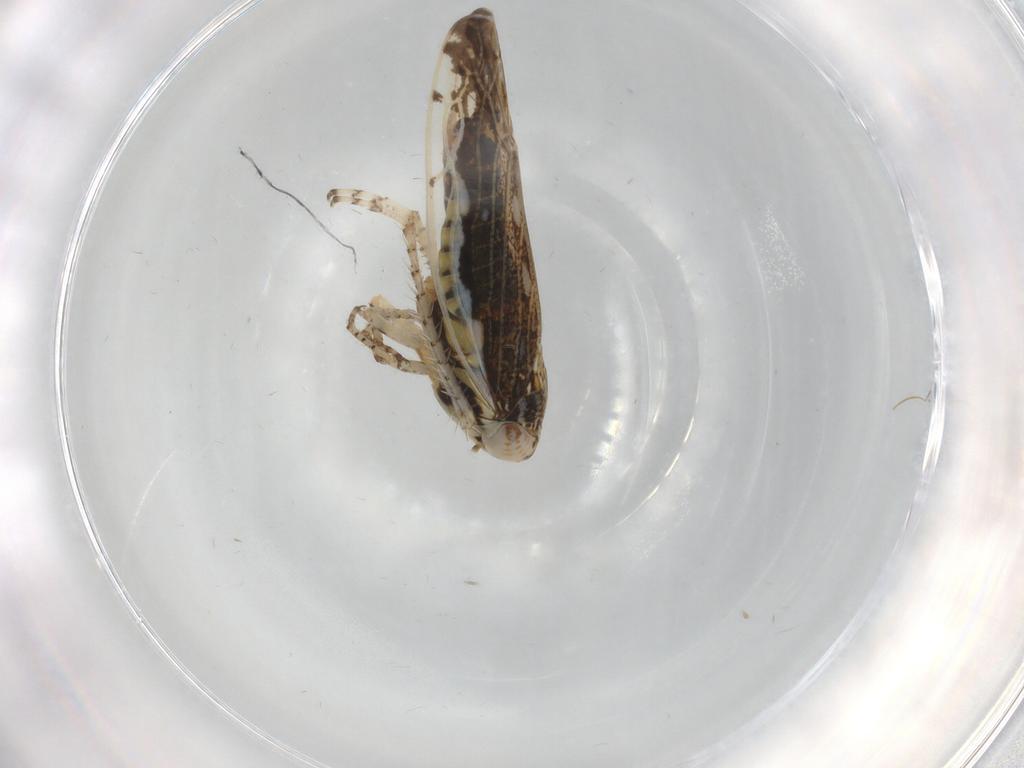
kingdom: Animalia
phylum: Arthropoda
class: Insecta
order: Hemiptera
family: Cicadellidae
